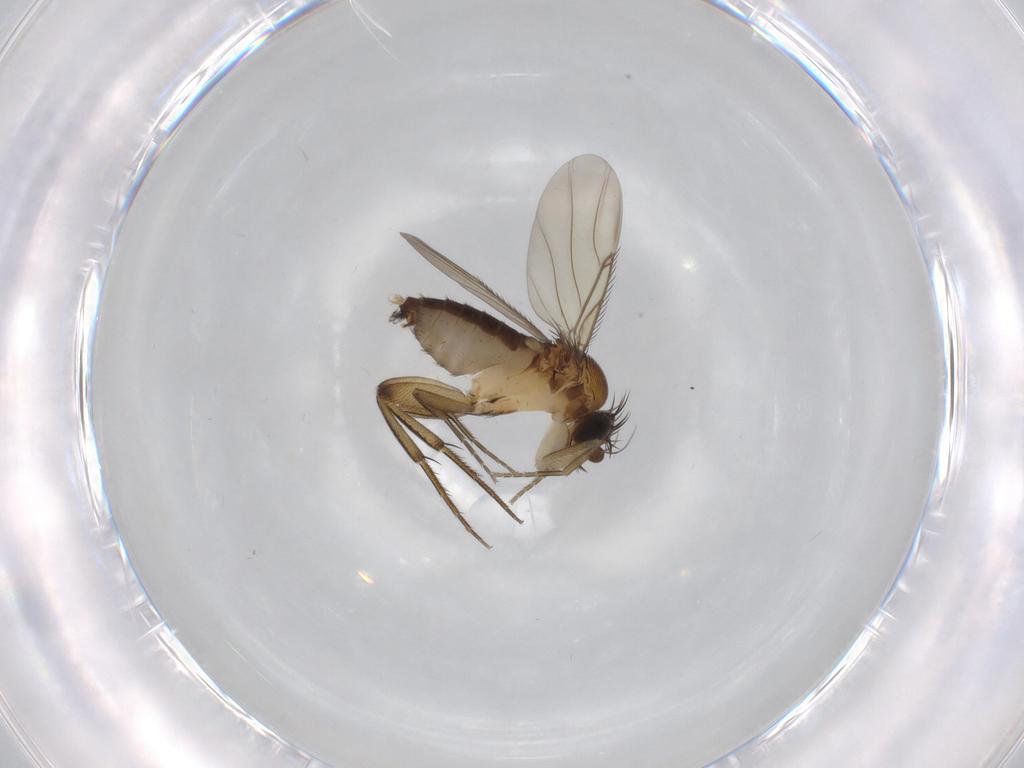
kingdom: Animalia
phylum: Arthropoda
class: Insecta
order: Diptera
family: Phoridae
